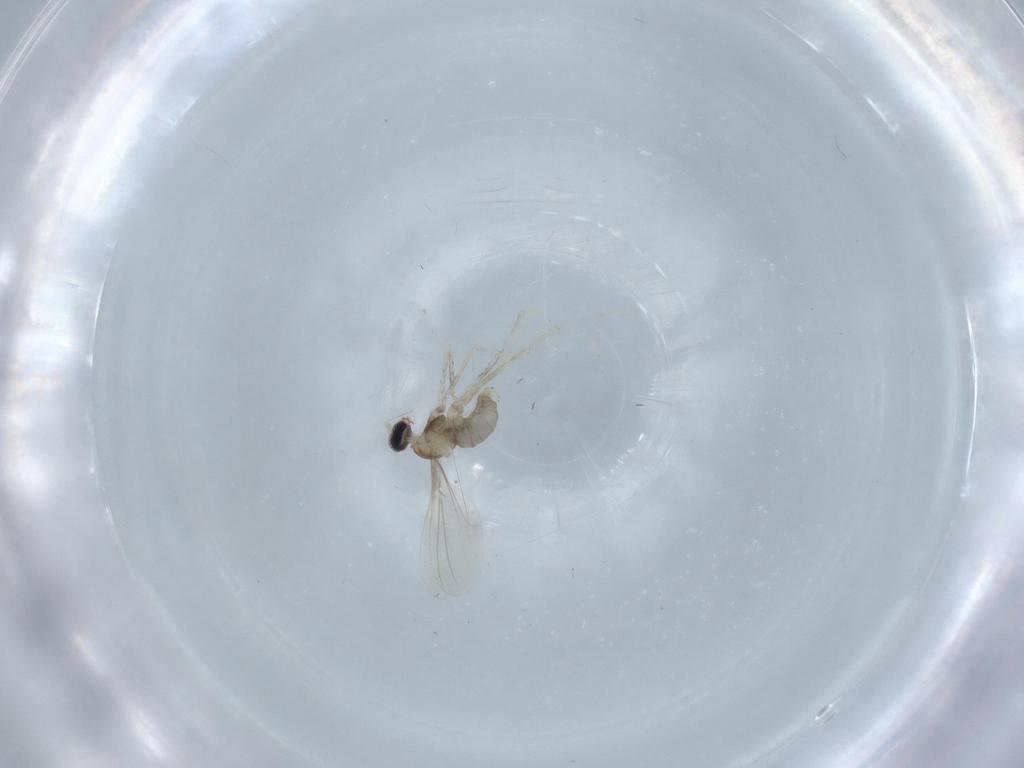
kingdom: Animalia
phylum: Arthropoda
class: Insecta
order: Diptera
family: Cecidomyiidae
